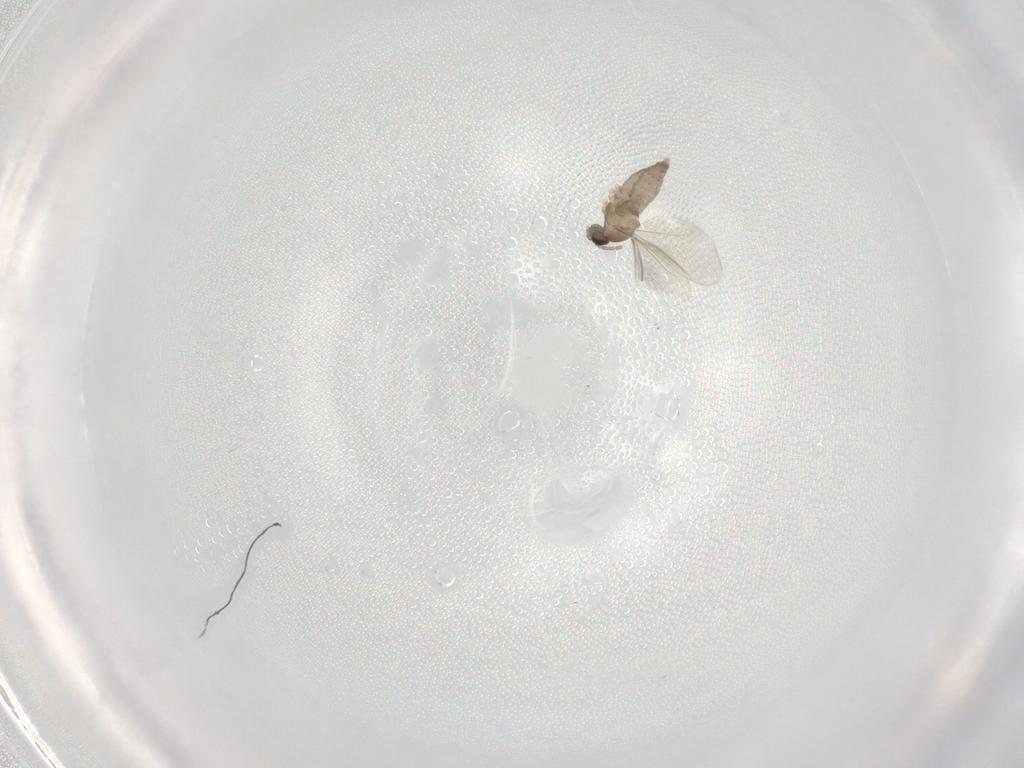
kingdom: Animalia
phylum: Arthropoda
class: Insecta
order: Diptera
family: Cecidomyiidae
